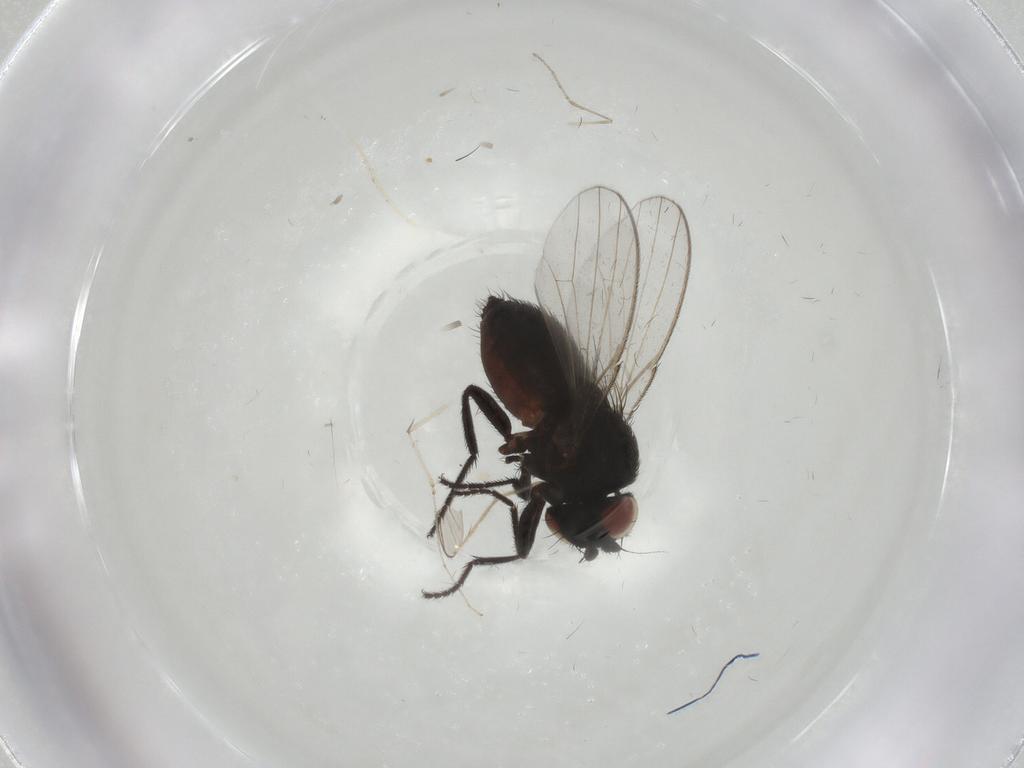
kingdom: Animalia
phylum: Arthropoda
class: Insecta
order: Diptera
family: Milichiidae
